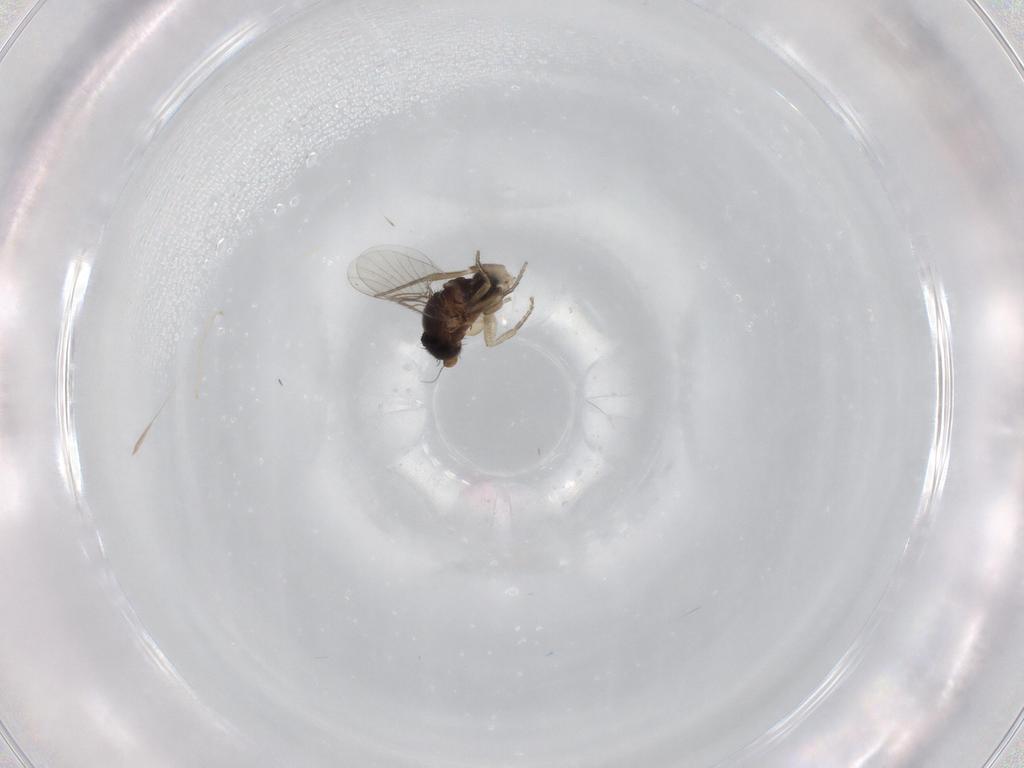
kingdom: Animalia
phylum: Arthropoda
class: Insecta
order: Diptera
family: Phoridae
